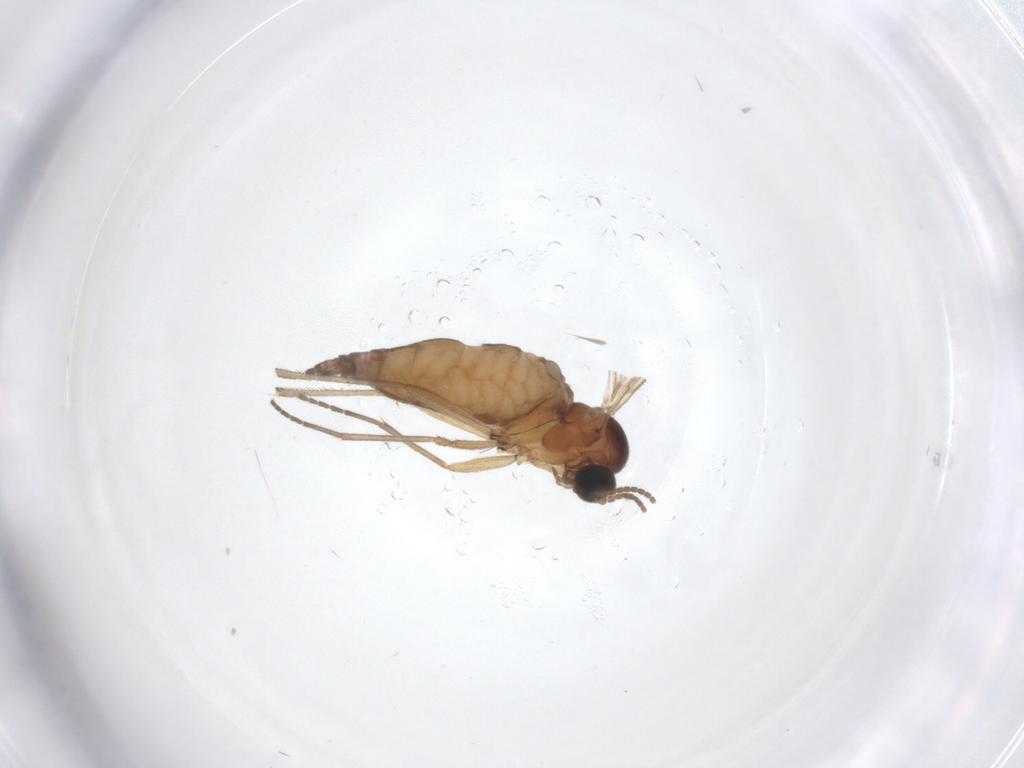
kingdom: Animalia
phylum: Arthropoda
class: Insecta
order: Diptera
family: Sciaridae
